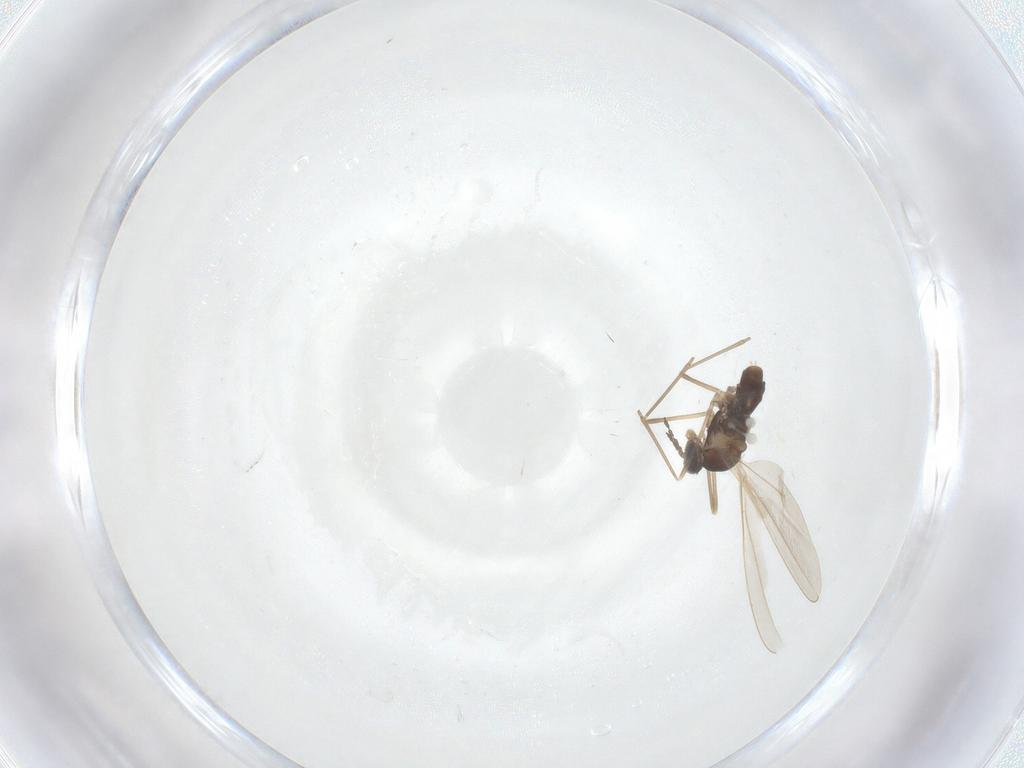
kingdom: Animalia
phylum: Arthropoda
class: Insecta
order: Diptera
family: Cecidomyiidae
